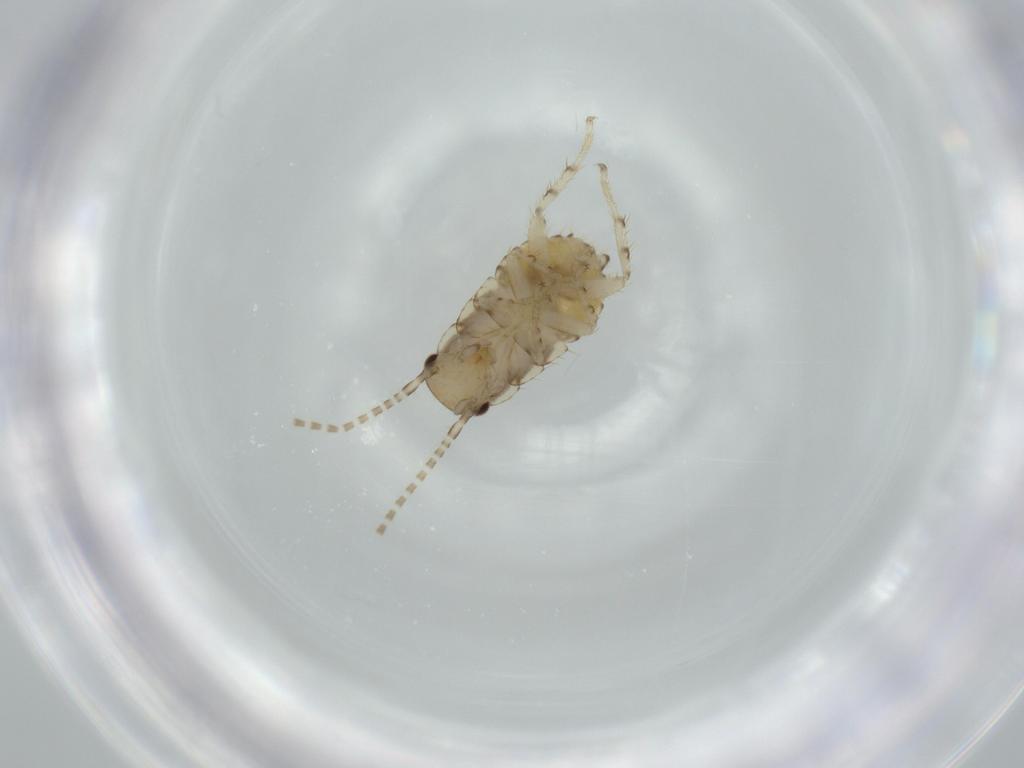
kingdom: Animalia
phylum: Arthropoda
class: Insecta
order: Blattodea
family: Ectobiidae
